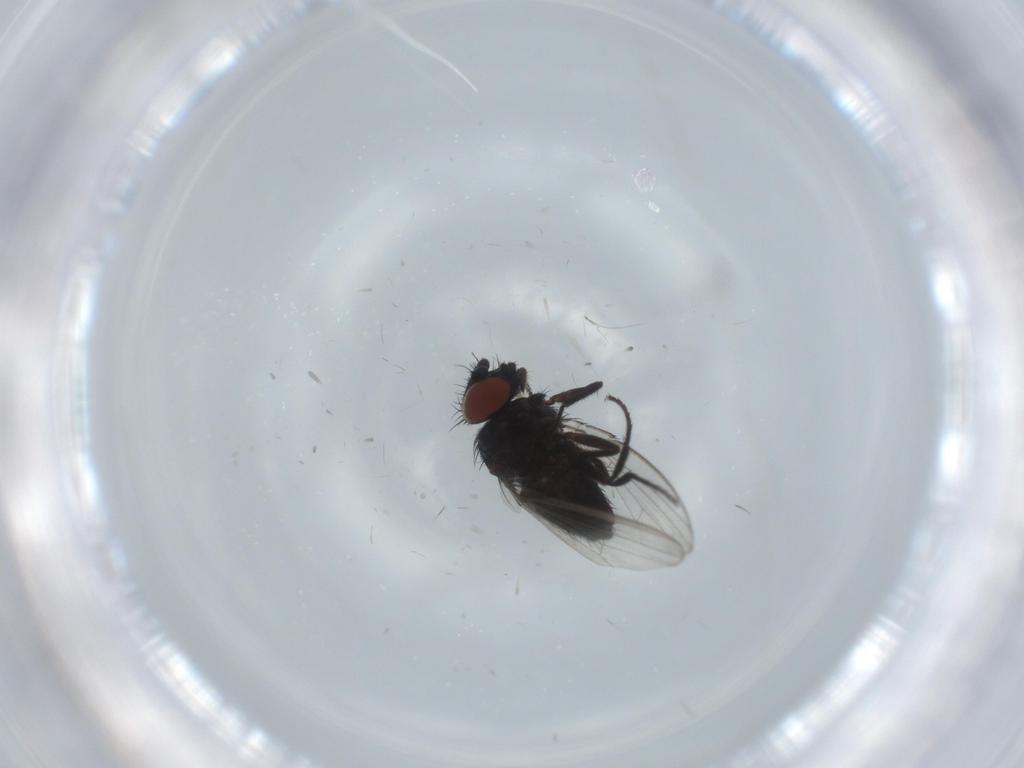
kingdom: Animalia
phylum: Arthropoda
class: Insecta
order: Diptera
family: Milichiidae
